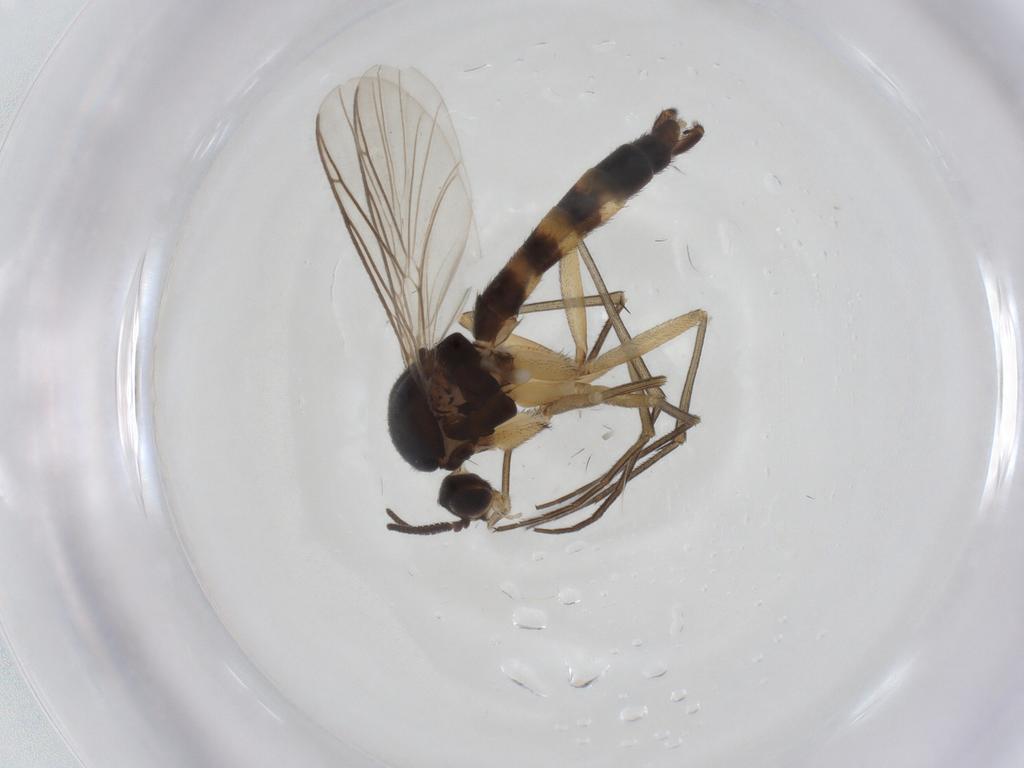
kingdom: Animalia
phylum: Arthropoda
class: Insecta
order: Diptera
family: Keroplatidae
